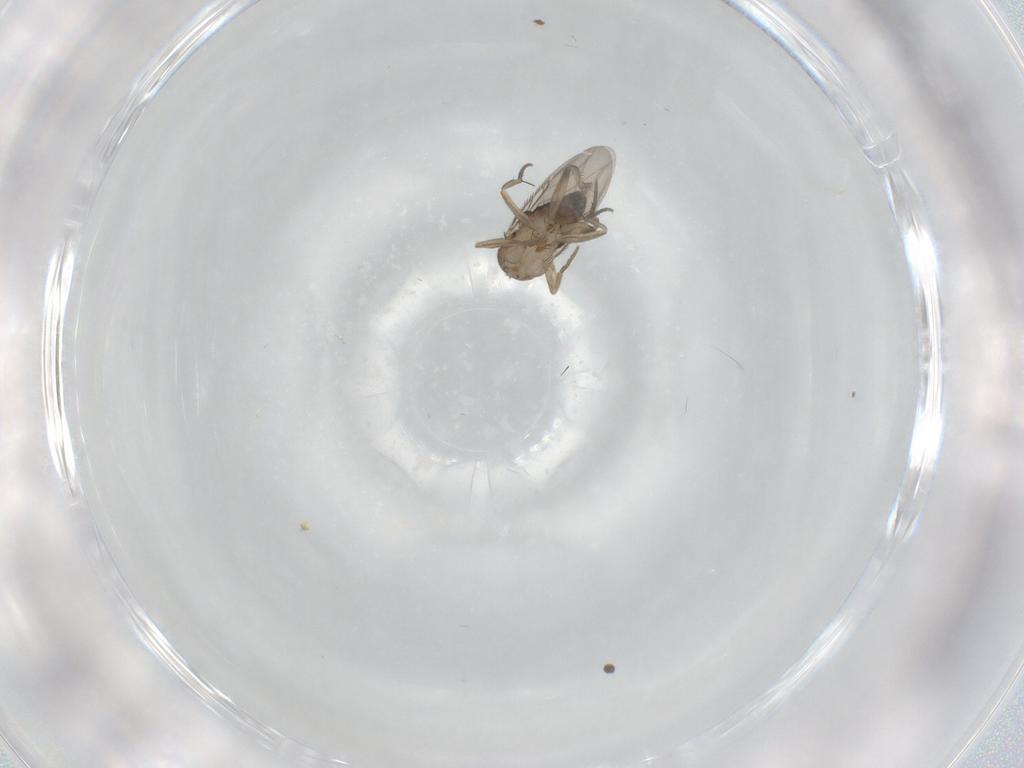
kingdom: Animalia
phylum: Arthropoda
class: Insecta
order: Diptera
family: Phoridae
